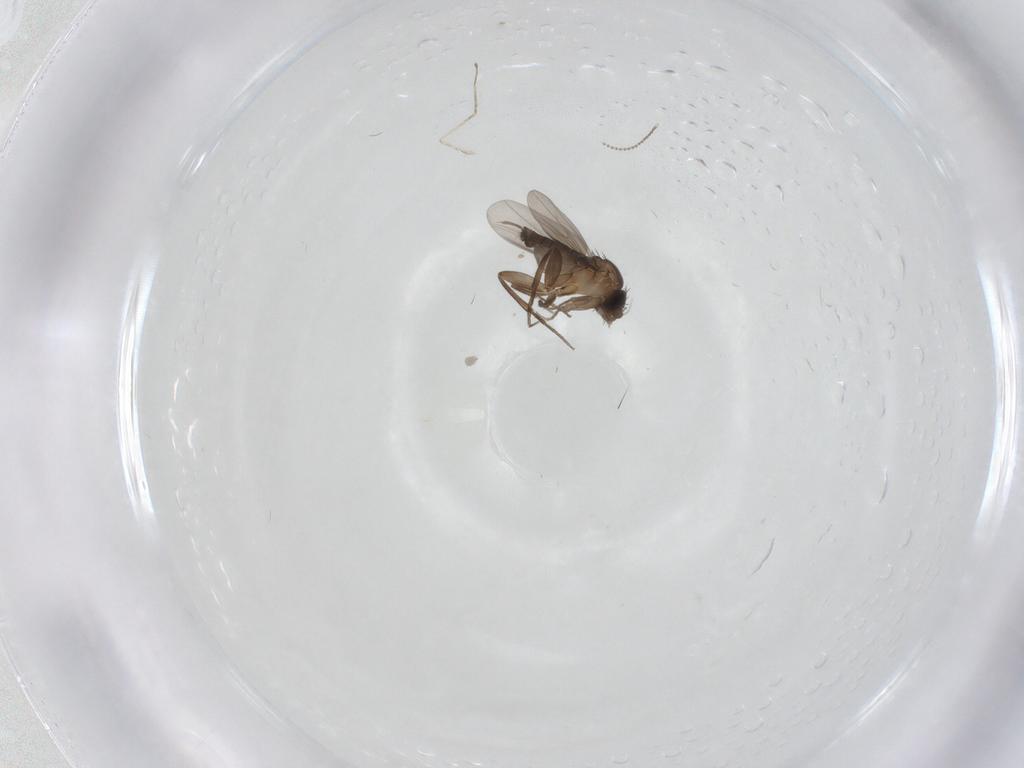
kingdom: Animalia
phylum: Arthropoda
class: Insecta
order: Diptera
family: Phoridae
